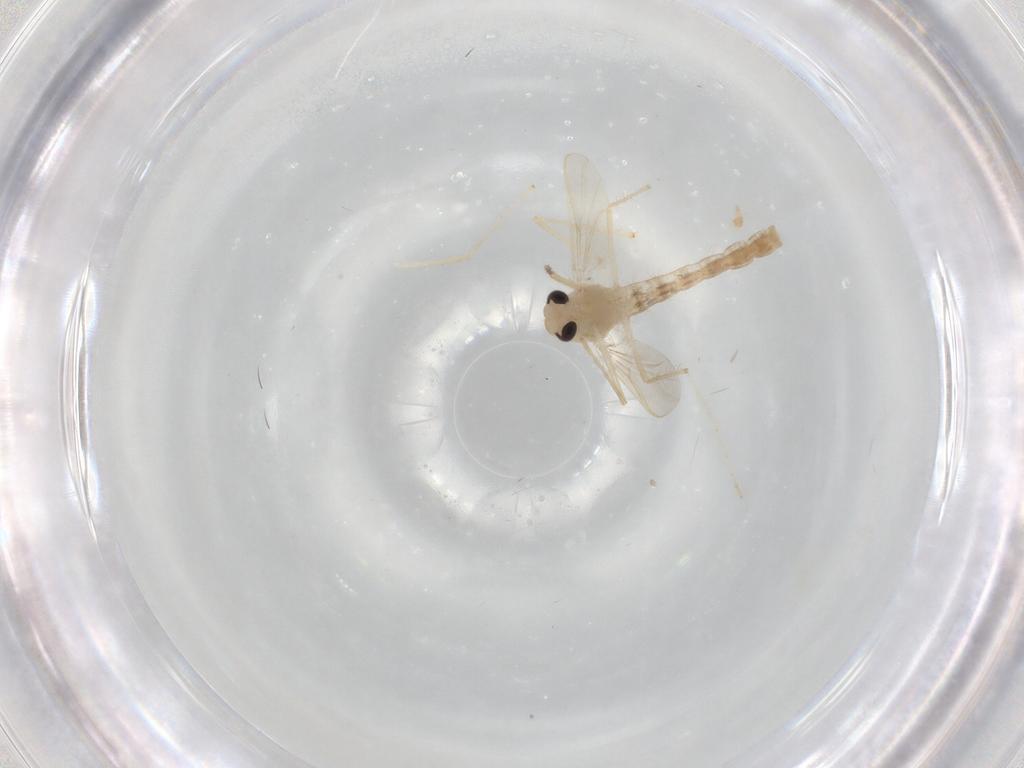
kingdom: Animalia
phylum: Arthropoda
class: Insecta
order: Diptera
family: Chironomidae
